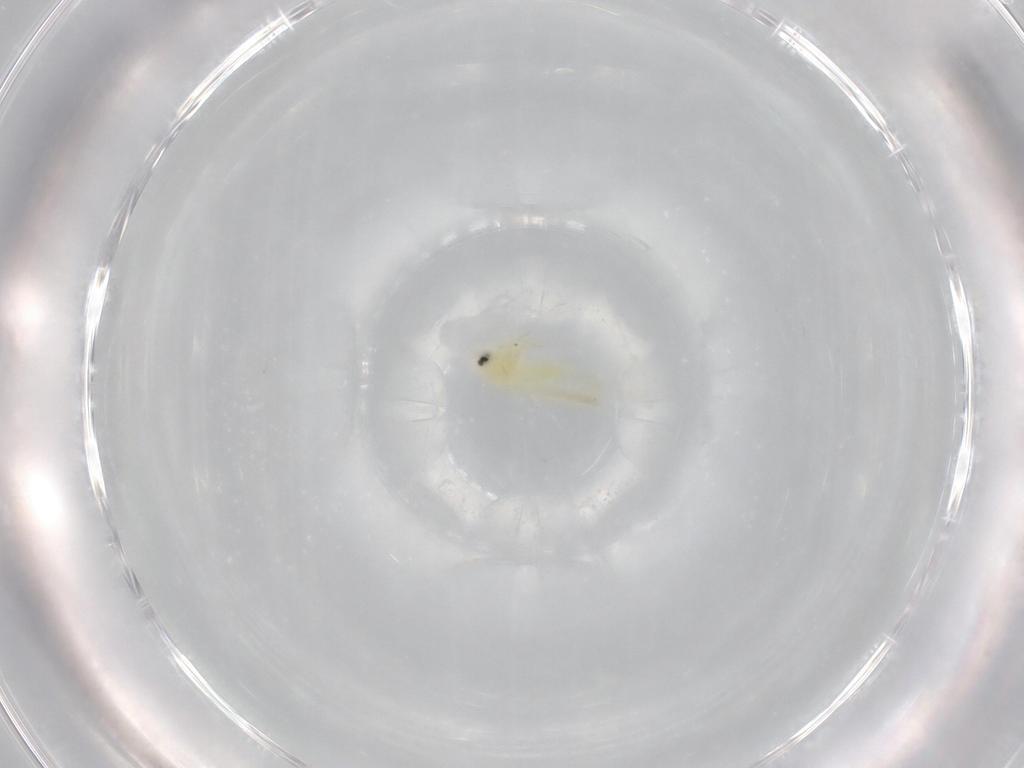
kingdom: Animalia
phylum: Arthropoda
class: Insecta
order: Hemiptera
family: Aleyrodidae
